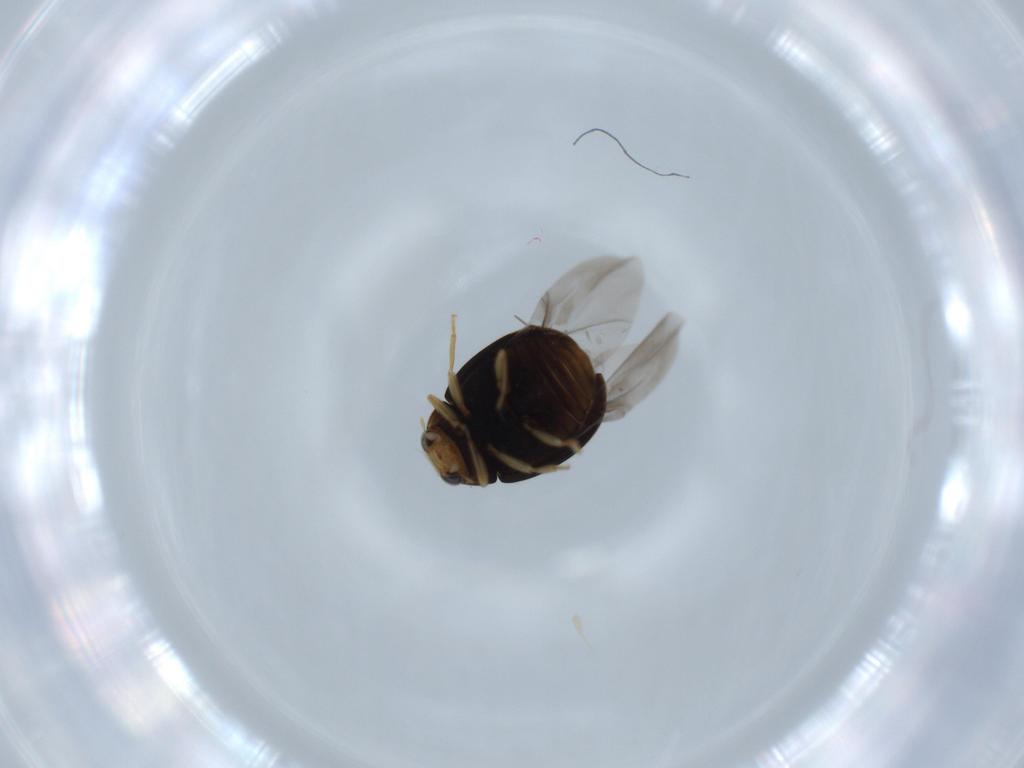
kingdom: Animalia
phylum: Arthropoda
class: Insecta
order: Coleoptera
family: Coccinellidae
